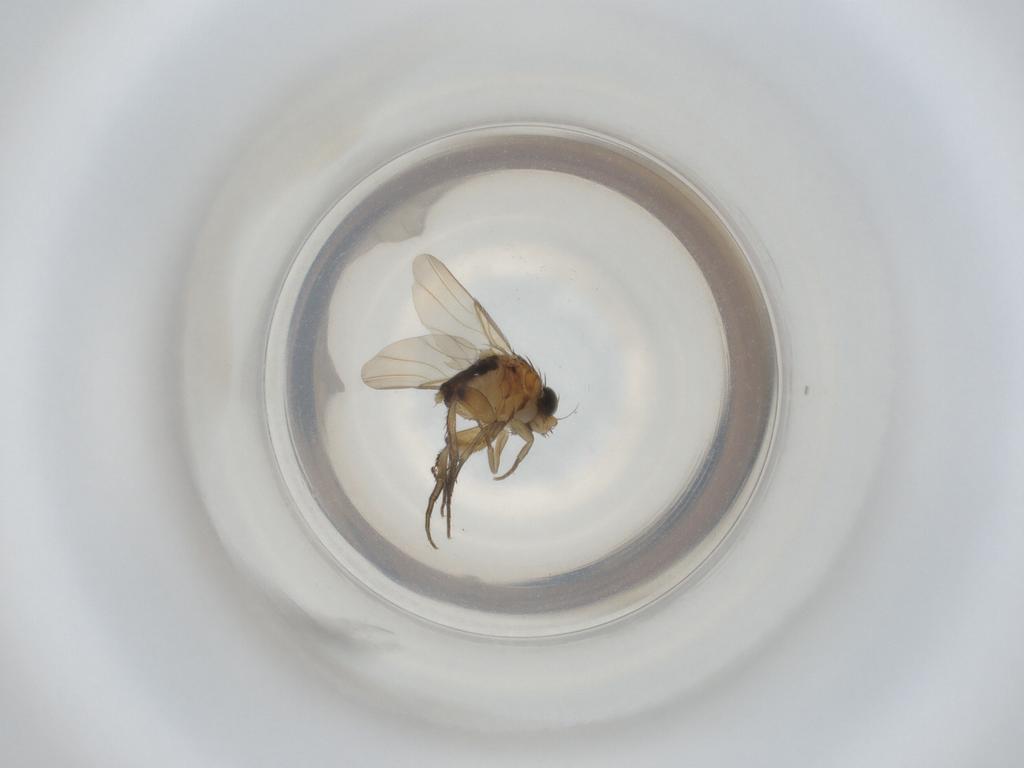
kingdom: Animalia
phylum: Arthropoda
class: Insecta
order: Diptera
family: Phoridae
